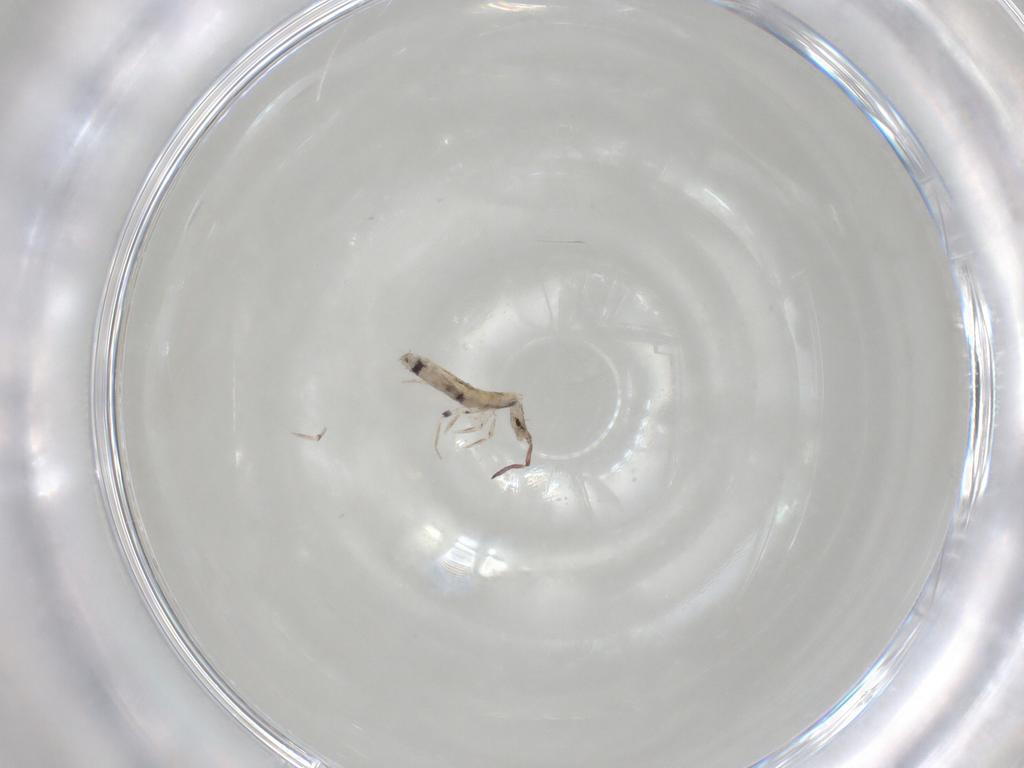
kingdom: Animalia
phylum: Arthropoda
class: Collembola
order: Entomobryomorpha
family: Entomobryidae
